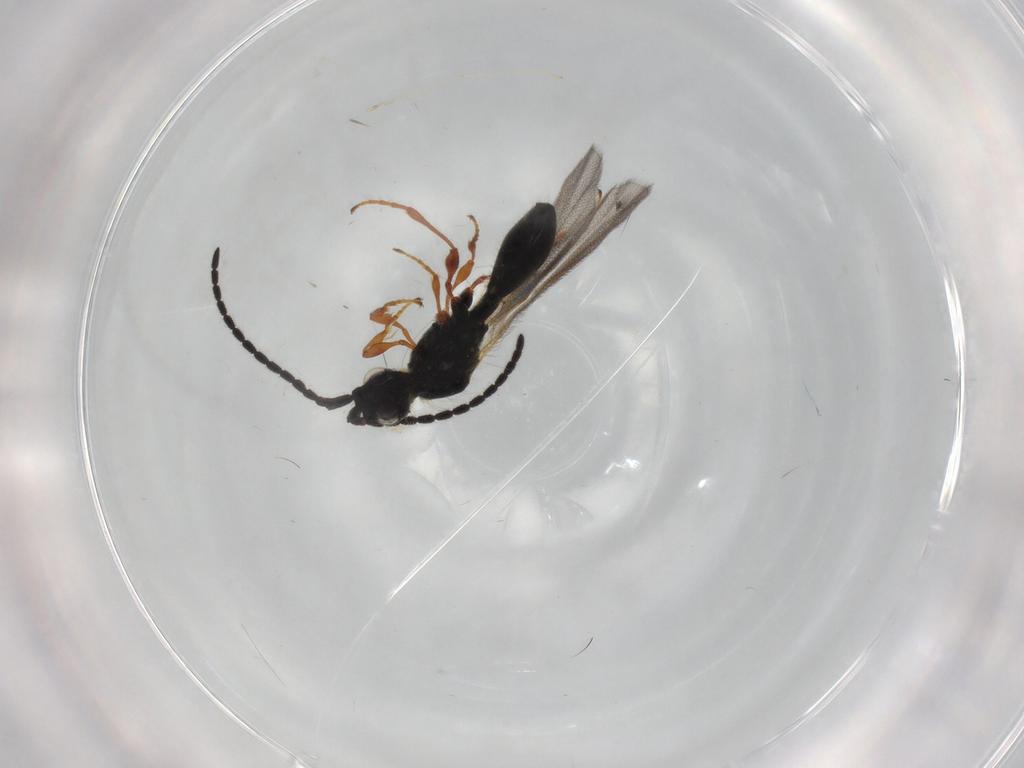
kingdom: Animalia
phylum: Arthropoda
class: Insecta
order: Hymenoptera
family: Diapriidae
